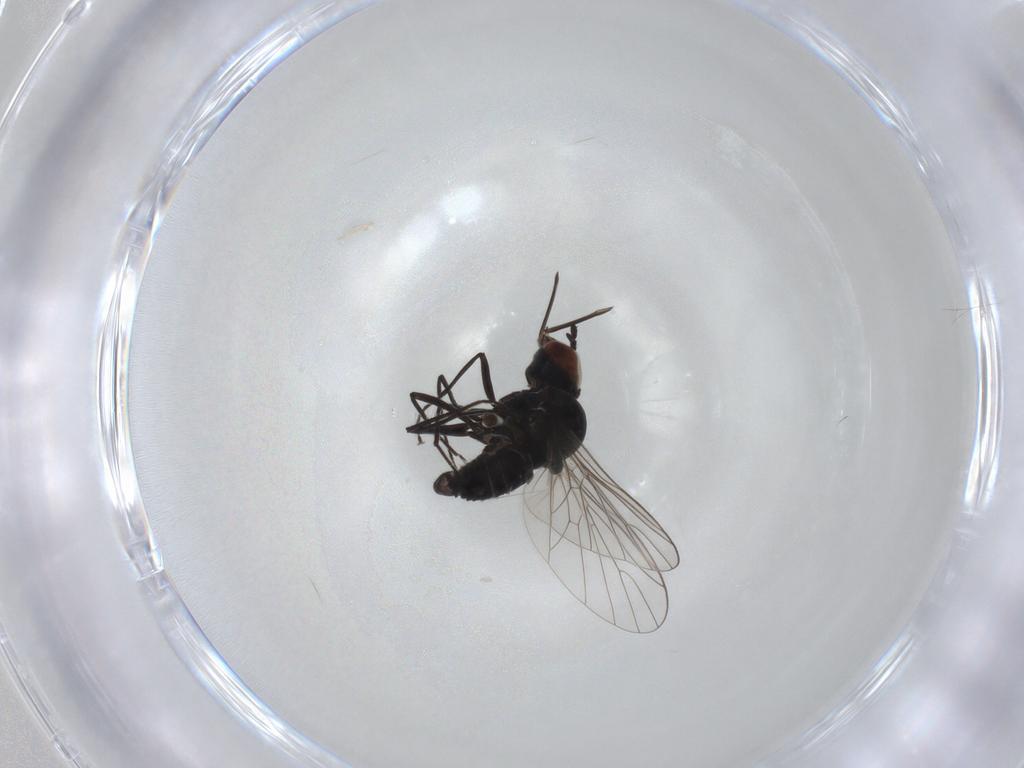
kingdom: Animalia
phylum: Arthropoda
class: Insecta
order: Diptera
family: Bombyliidae
